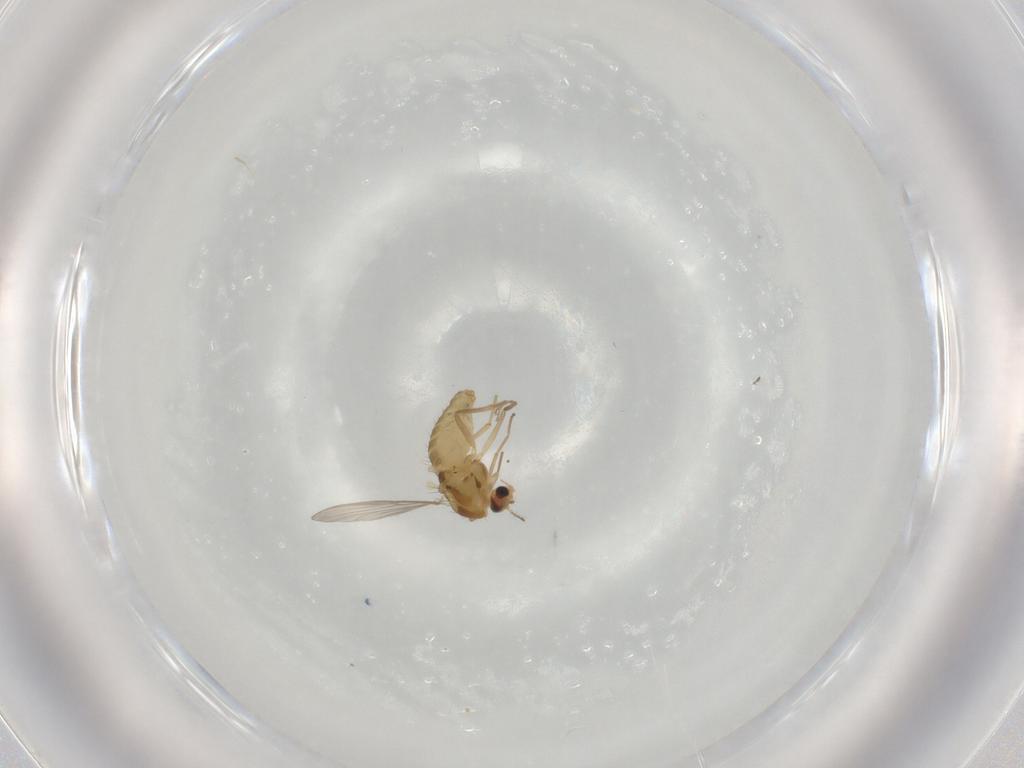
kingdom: Animalia
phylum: Arthropoda
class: Insecta
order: Diptera
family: Chironomidae
